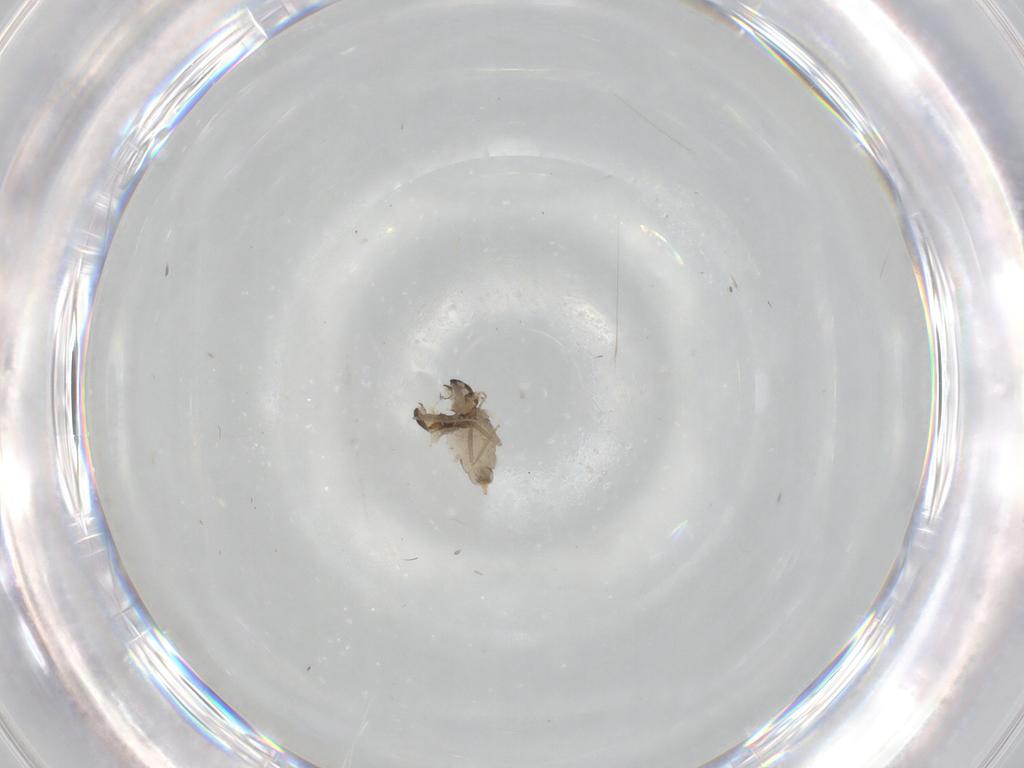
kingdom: Animalia
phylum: Arthropoda
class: Insecta
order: Diptera
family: Cecidomyiidae
